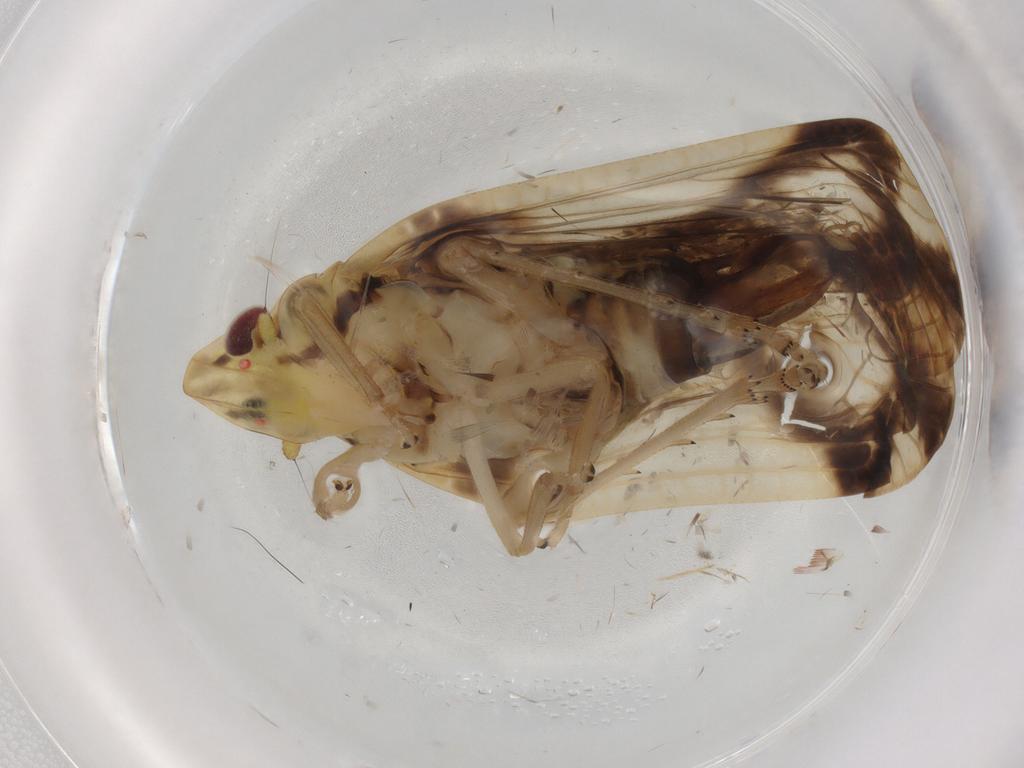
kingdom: Animalia
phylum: Arthropoda
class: Insecta
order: Hemiptera
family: Tropiduchidae
